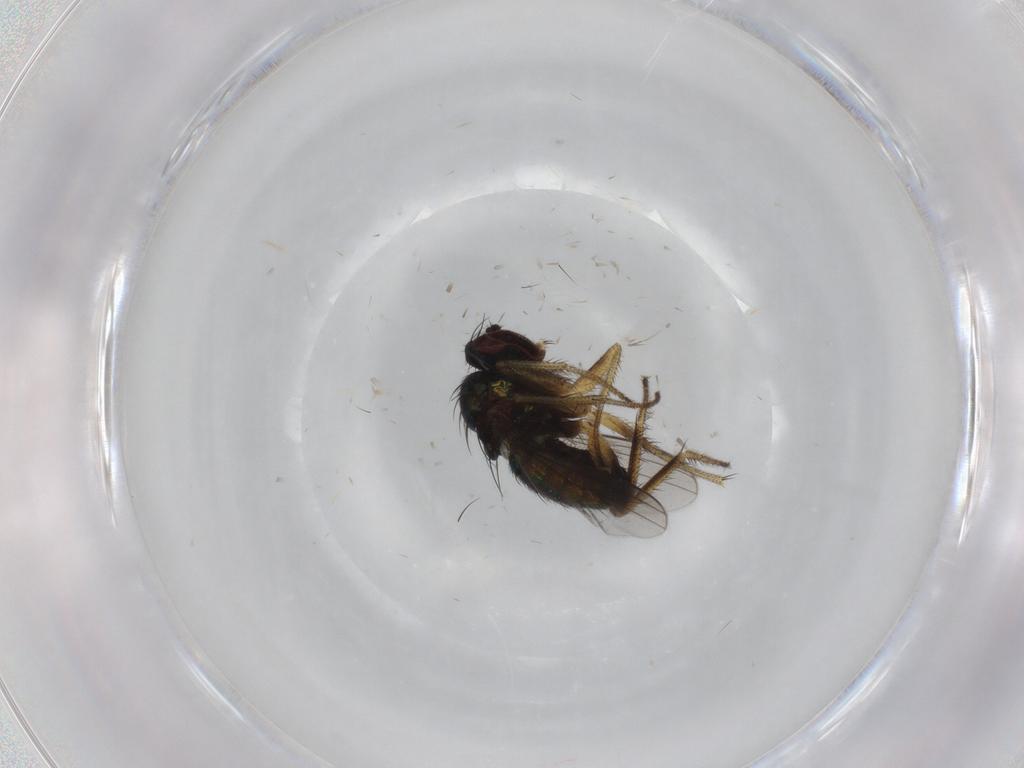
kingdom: Animalia
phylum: Arthropoda
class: Insecta
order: Diptera
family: Dolichopodidae
